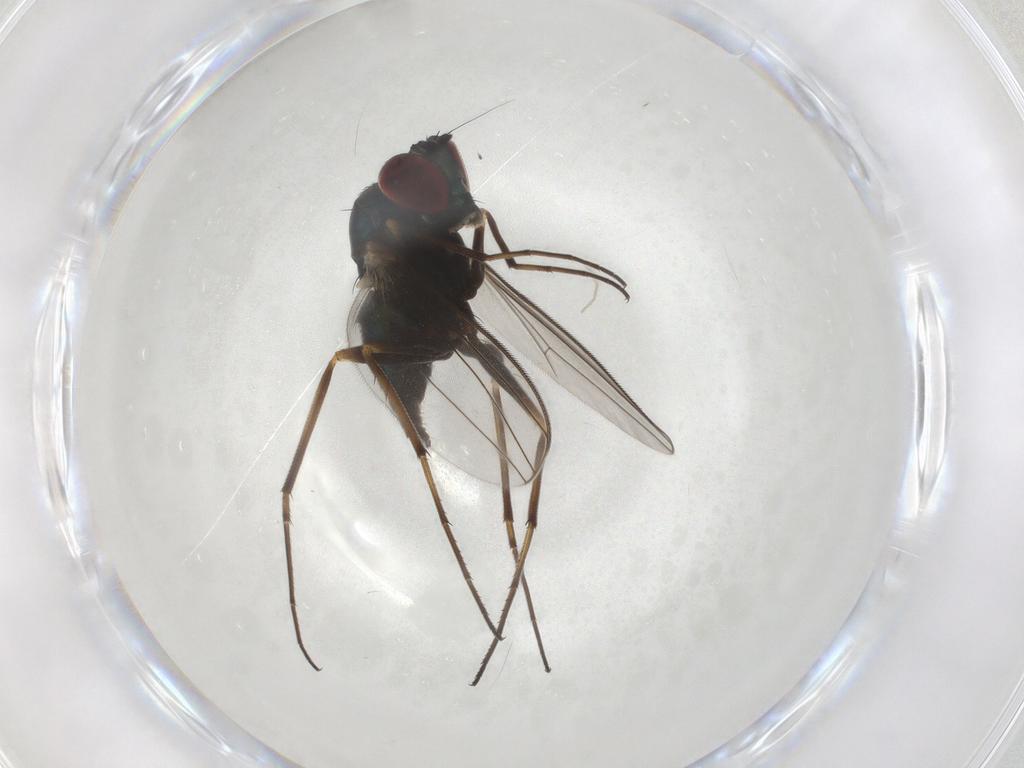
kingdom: Animalia
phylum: Arthropoda
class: Insecta
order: Diptera
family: Dolichopodidae
